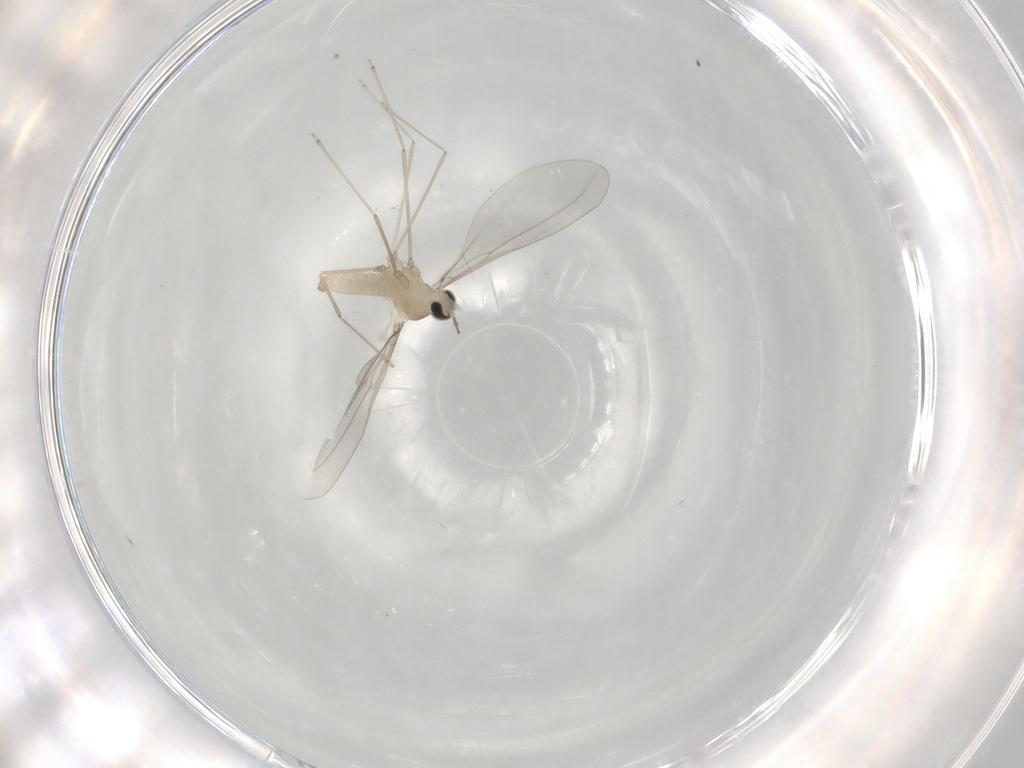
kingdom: Animalia
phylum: Arthropoda
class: Insecta
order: Diptera
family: Cecidomyiidae
